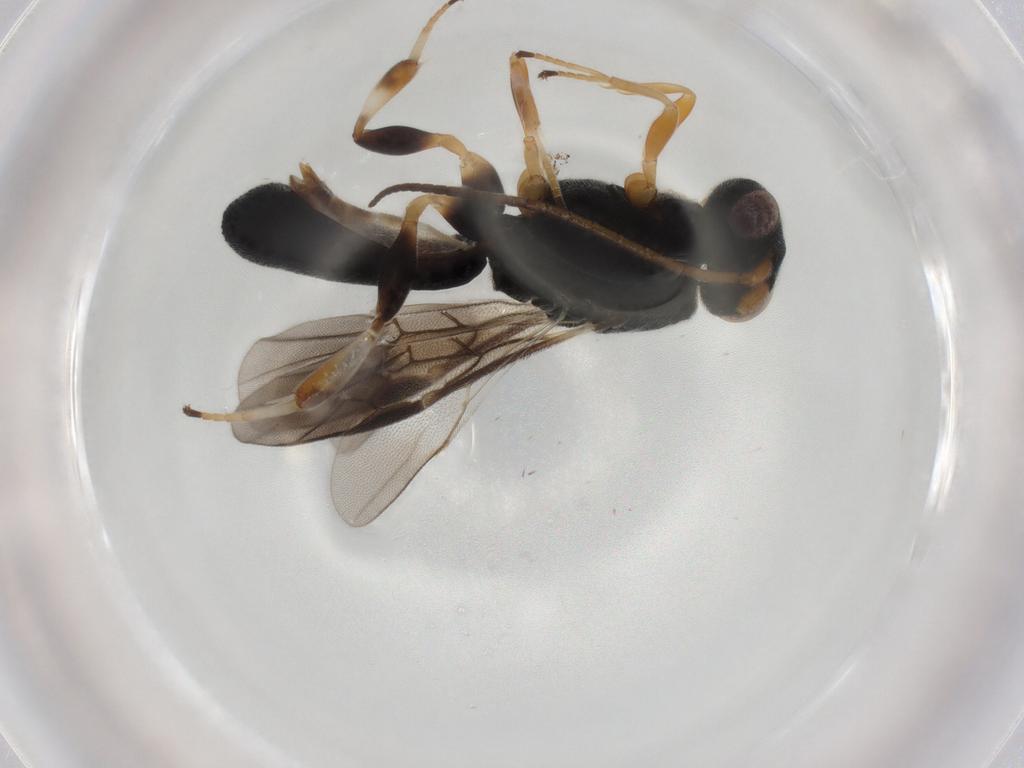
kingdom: Animalia
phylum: Arthropoda
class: Insecta
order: Hymenoptera
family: Braconidae
